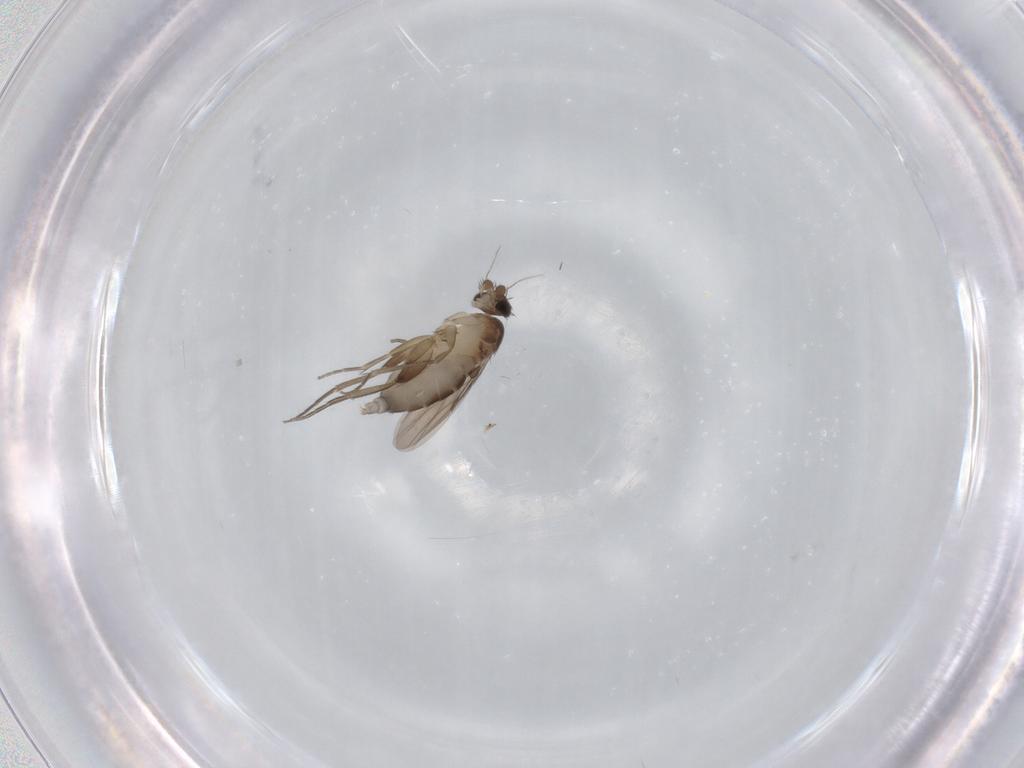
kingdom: Animalia
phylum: Arthropoda
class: Insecta
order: Diptera
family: Phoridae
